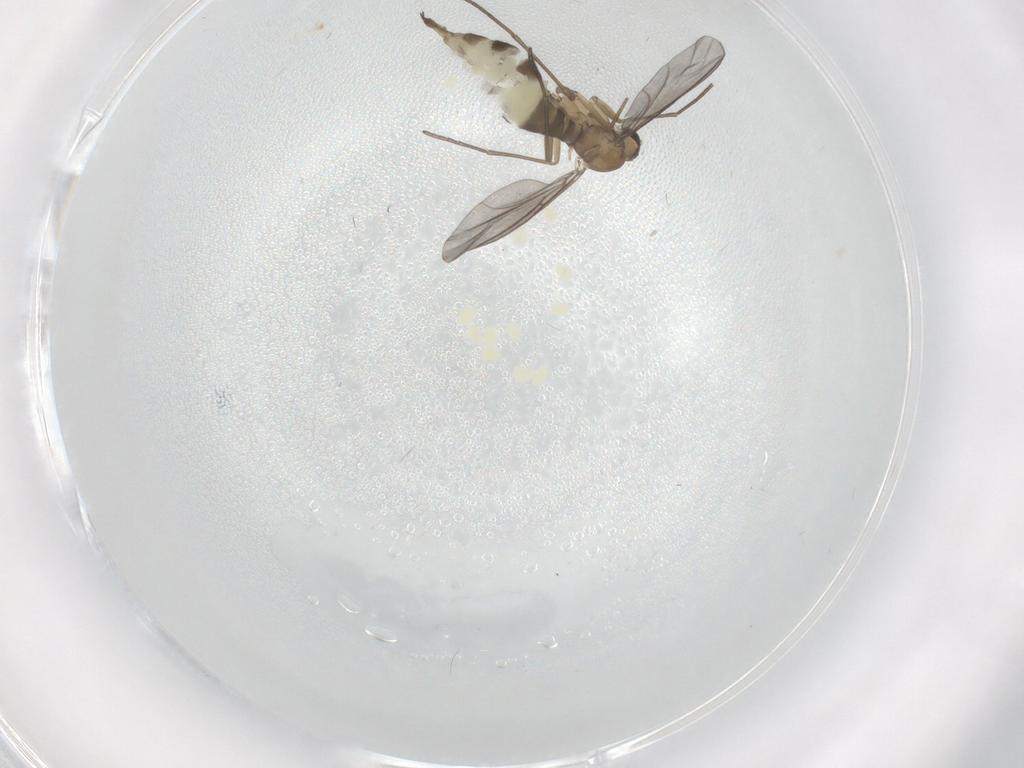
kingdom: Animalia
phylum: Arthropoda
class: Insecta
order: Diptera
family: Sciaridae
